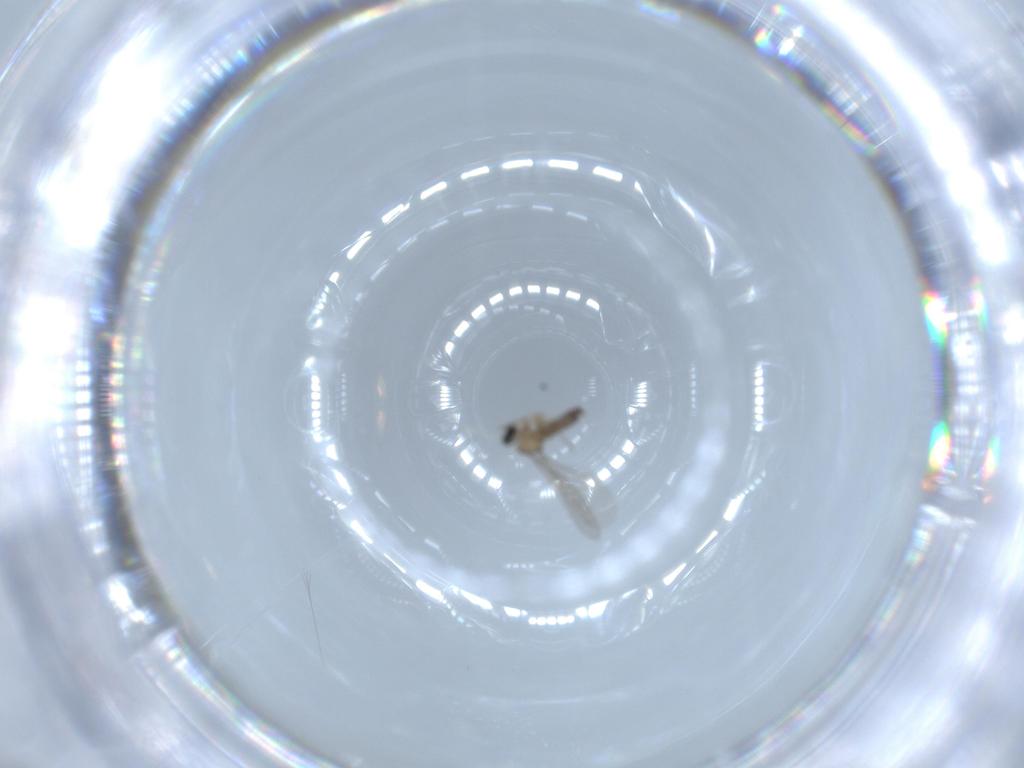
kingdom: Animalia
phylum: Arthropoda
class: Insecta
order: Diptera
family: Cecidomyiidae
